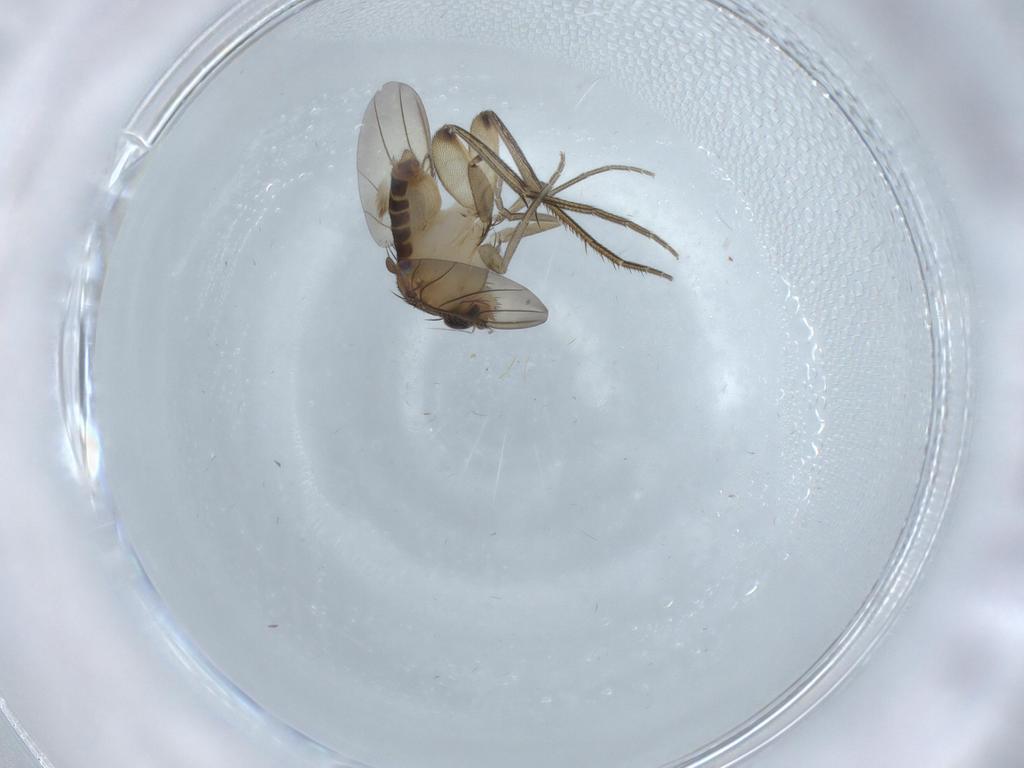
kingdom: Animalia
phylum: Arthropoda
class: Insecta
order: Diptera
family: Phoridae
